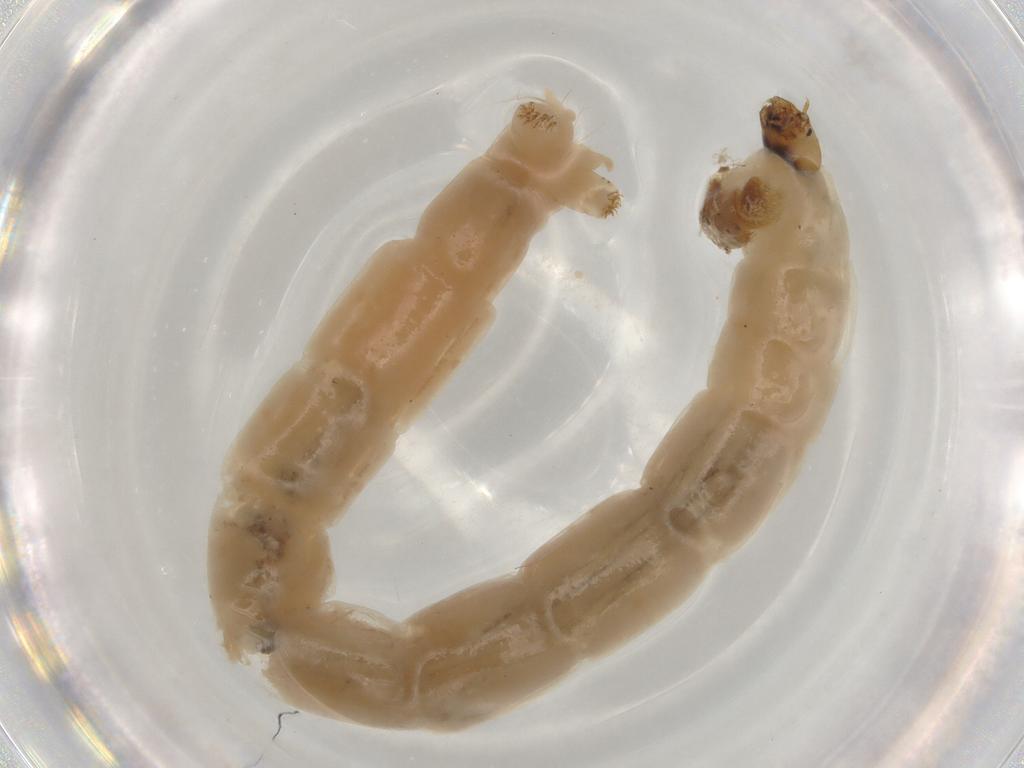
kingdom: Animalia
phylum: Arthropoda
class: Insecta
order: Diptera
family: Chironomidae
